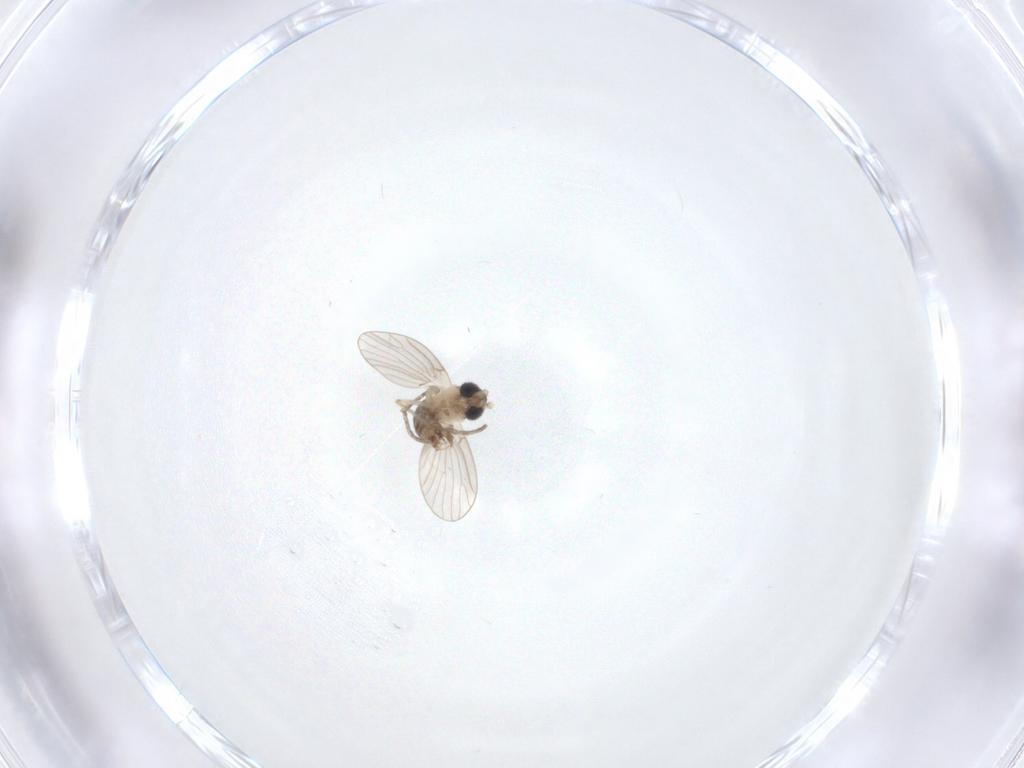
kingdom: Animalia
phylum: Arthropoda
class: Insecta
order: Diptera
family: Psychodidae
